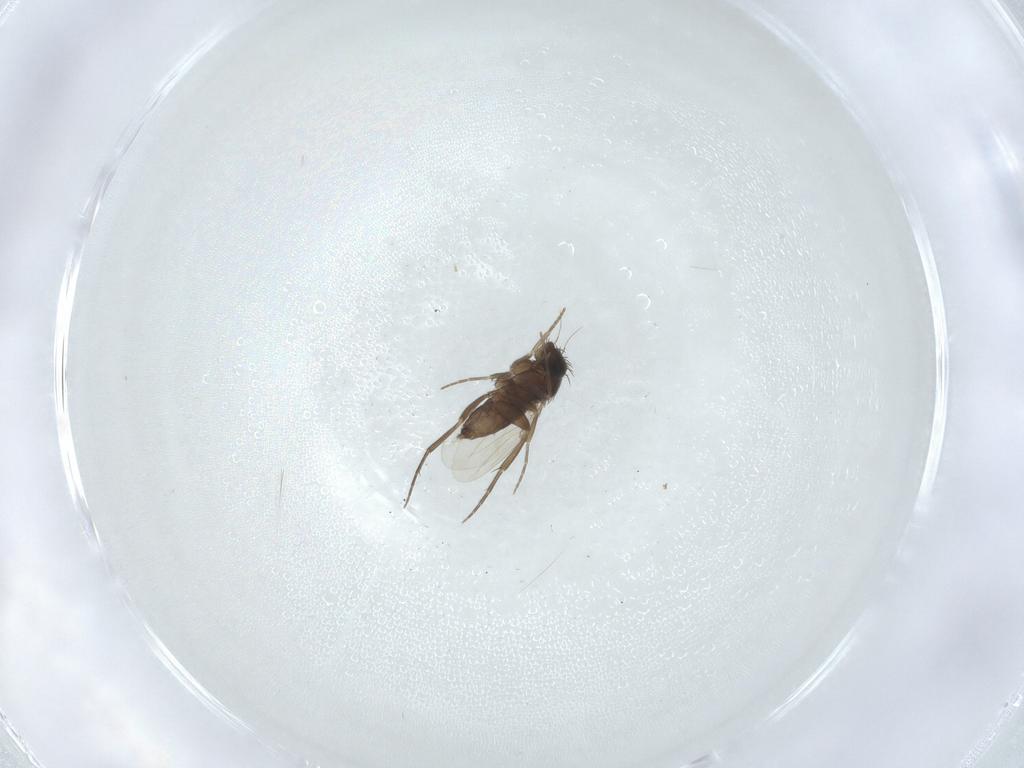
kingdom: Animalia
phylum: Arthropoda
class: Insecta
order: Diptera
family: Phoridae
